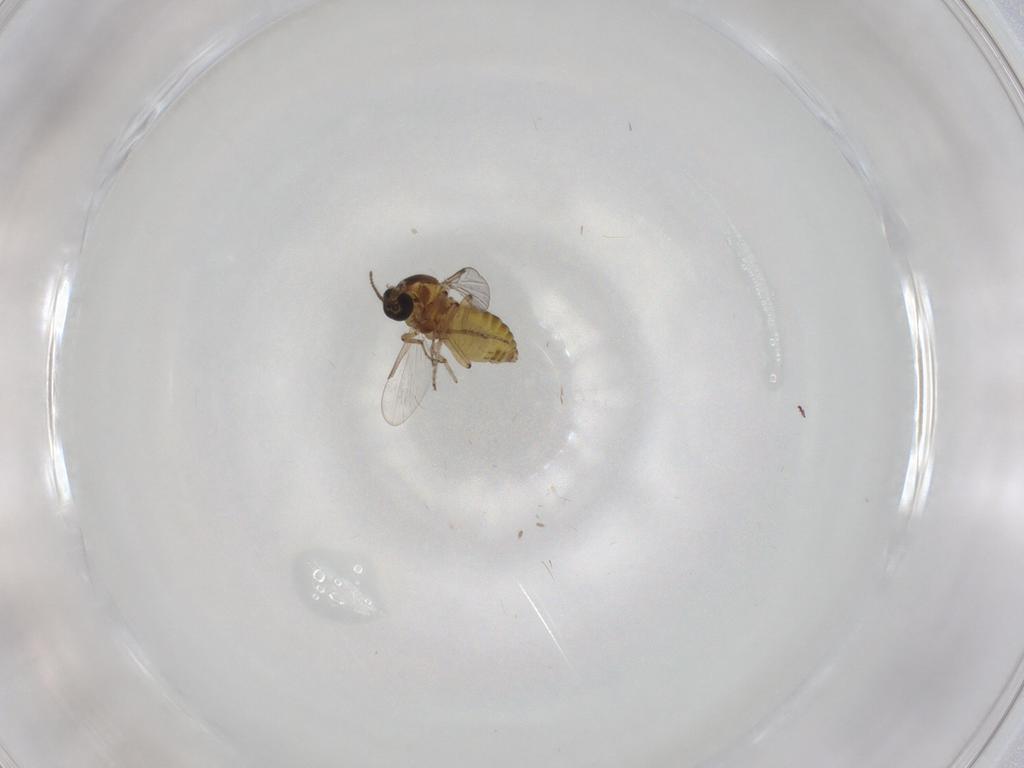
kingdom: Animalia
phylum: Arthropoda
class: Insecta
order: Diptera
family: Ceratopogonidae
